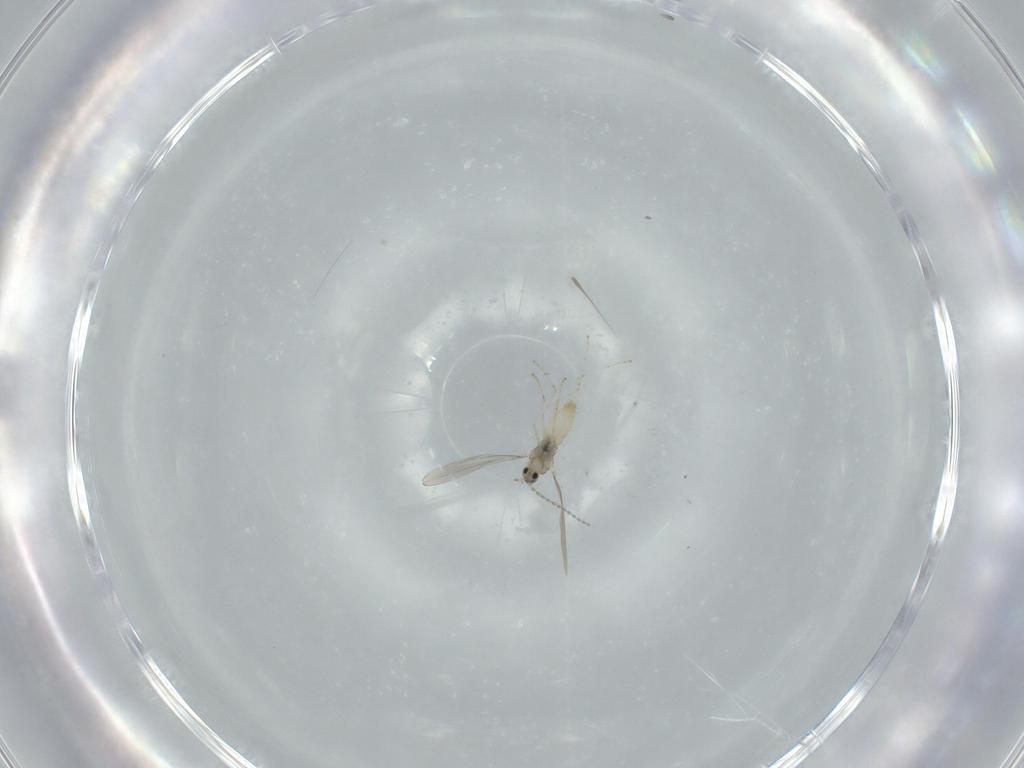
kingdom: Animalia
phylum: Arthropoda
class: Insecta
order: Diptera
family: Cecidomyiidae
